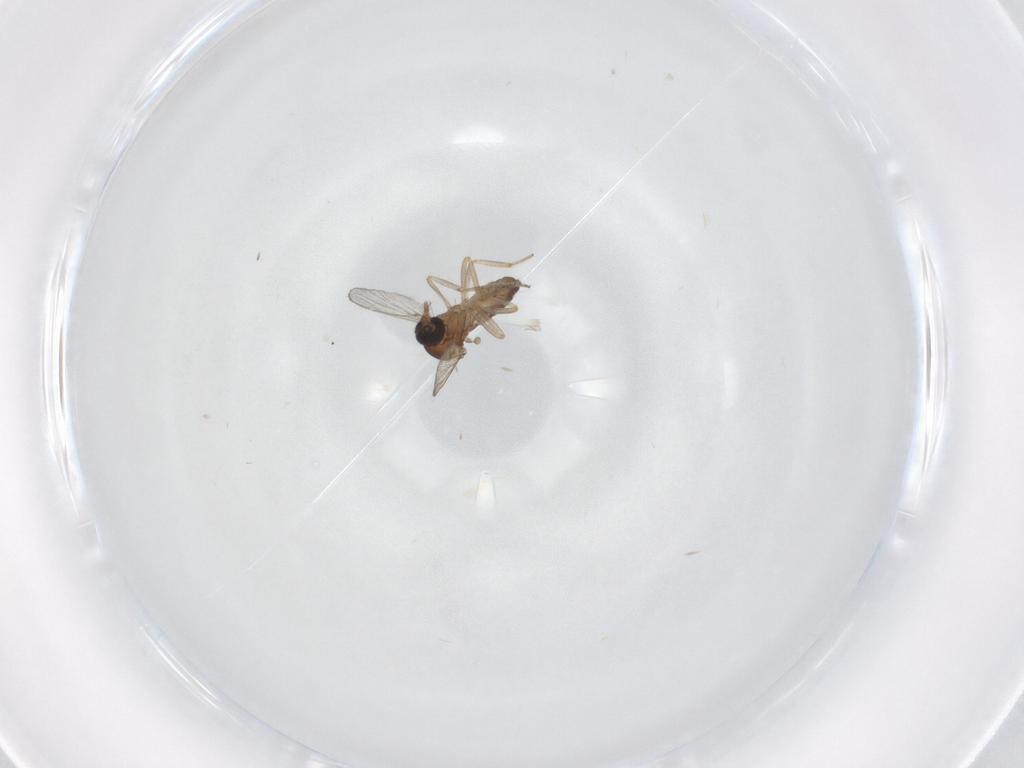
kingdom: Animalia
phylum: Arthropoda
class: Insecta
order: Diptera
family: Ceratopogonidae
